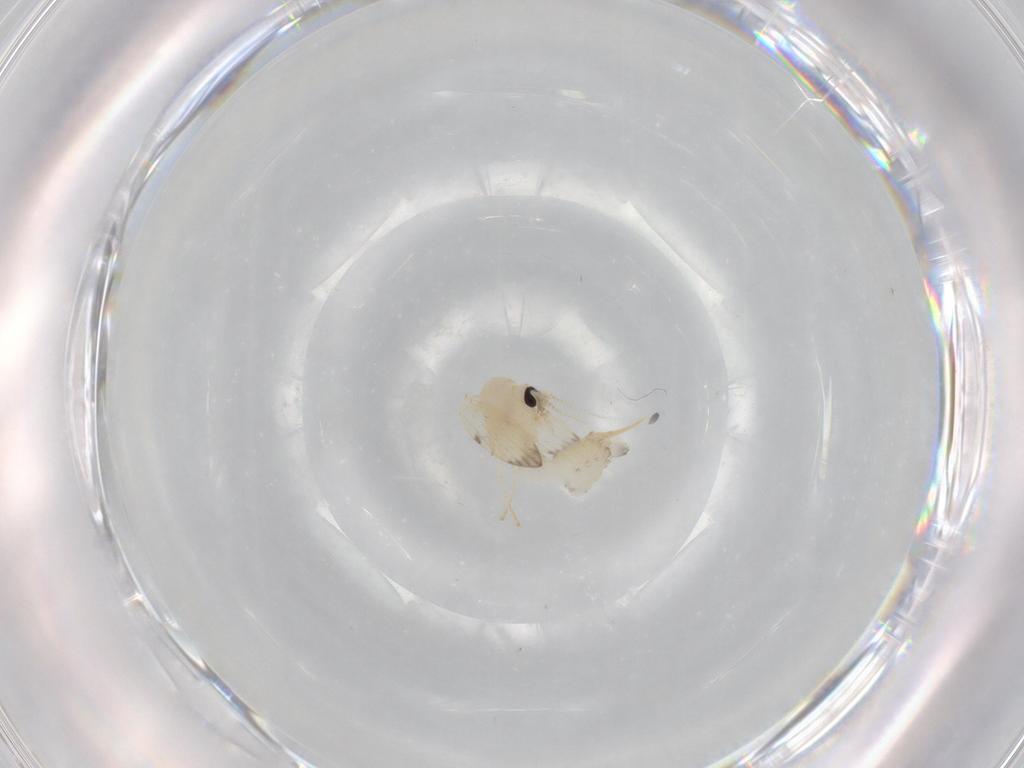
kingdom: Animalia
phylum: Arthropoda
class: Insecta
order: Diptera
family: Psychodidae
